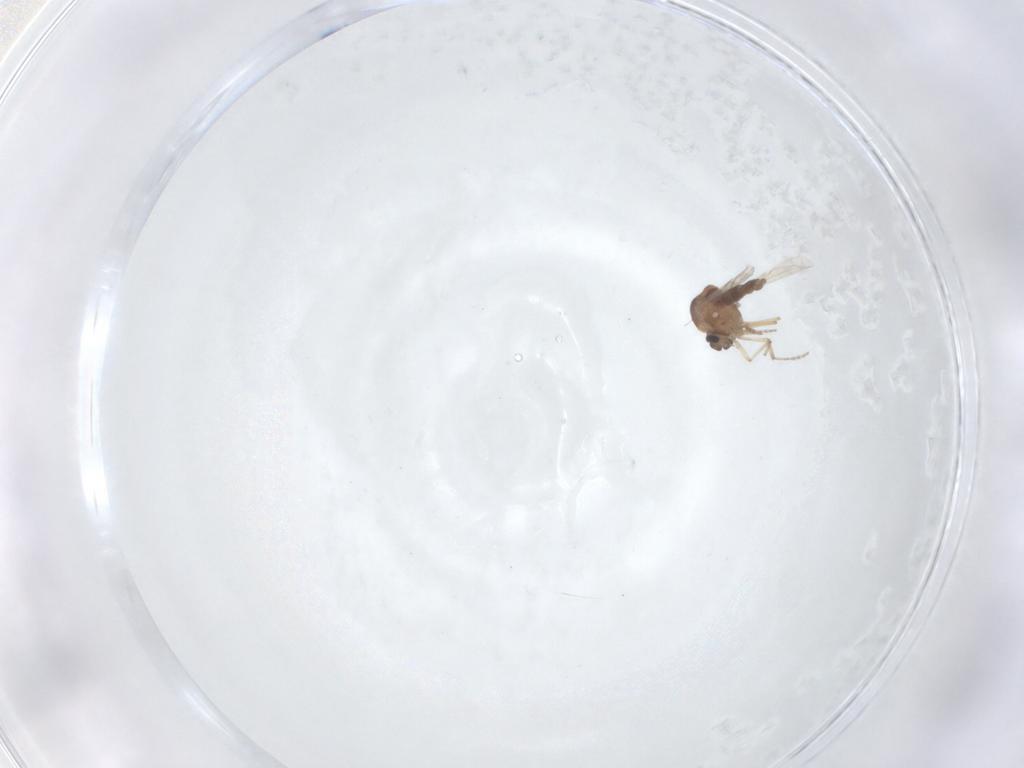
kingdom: Animalia
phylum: Arthropoda
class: Insecta
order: Diptera
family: Ceratopogonidae
